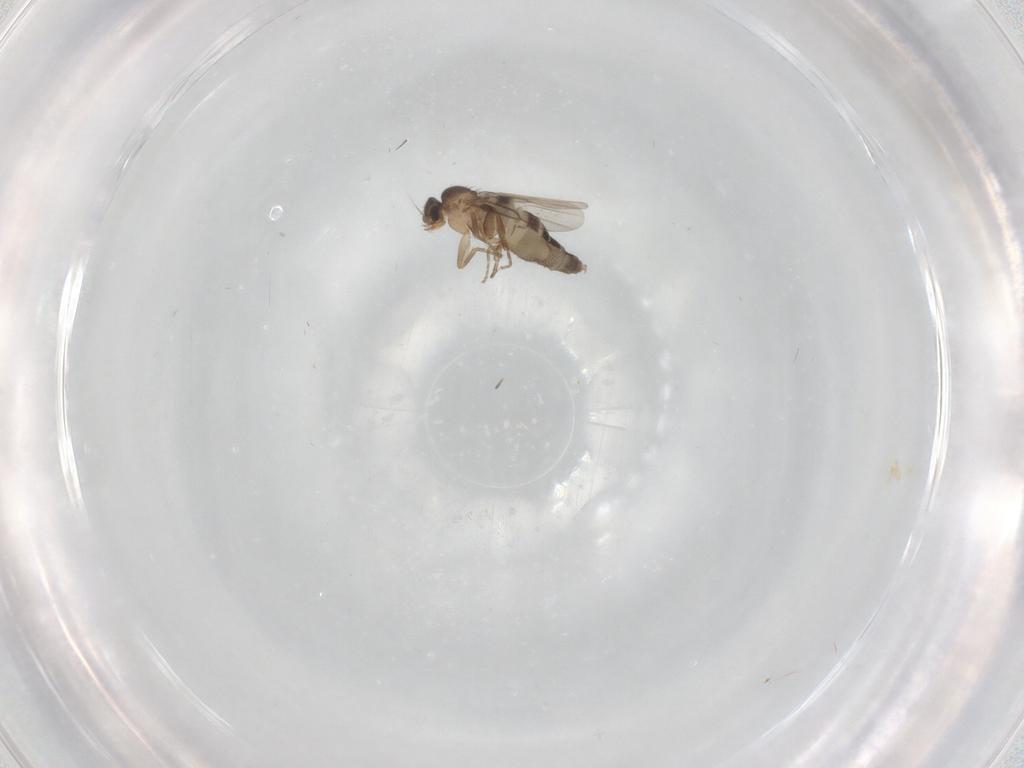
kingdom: Animalia
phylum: Arthropoda
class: Insecta
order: Diptera
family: Phoridae
